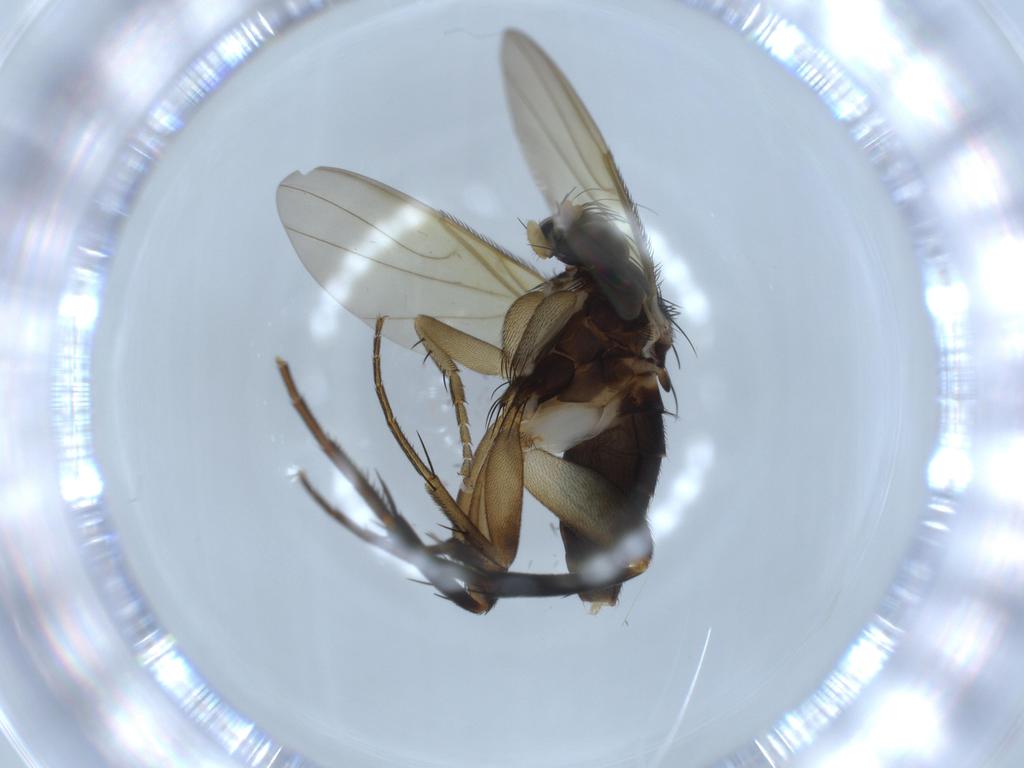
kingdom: Animalia
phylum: Arthropoda
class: Insecta
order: Diptera
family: Phoridae
